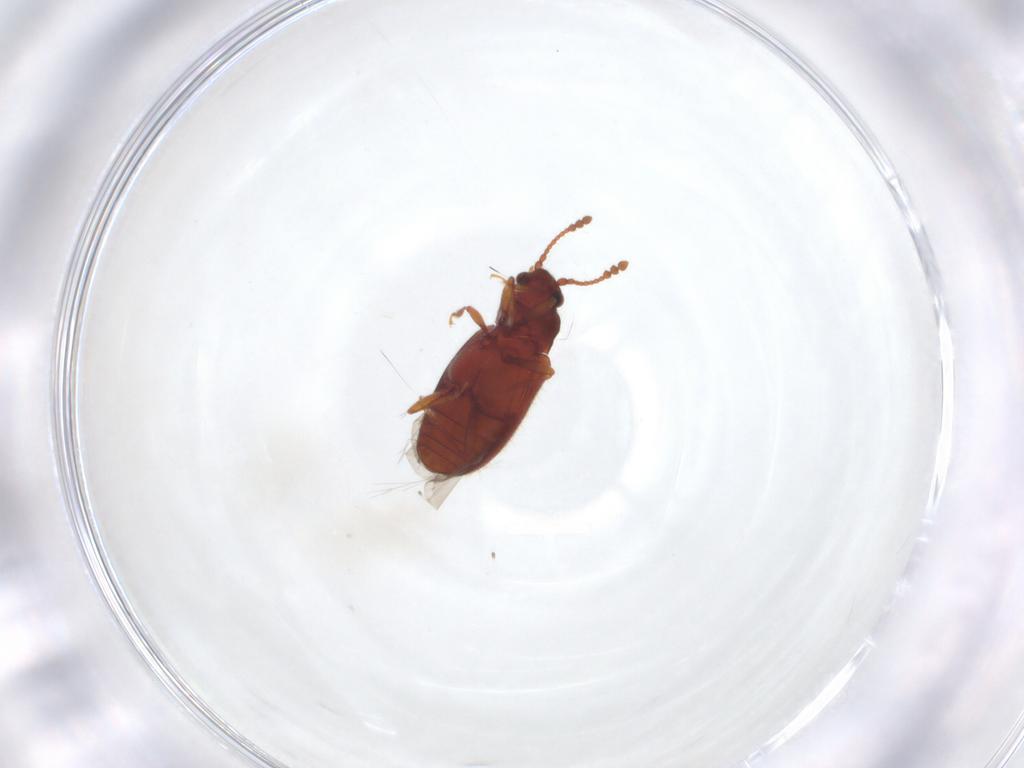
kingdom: Animalia
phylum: Arthropoda
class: Insecta
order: Coleoptera
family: Cryptophagidae
